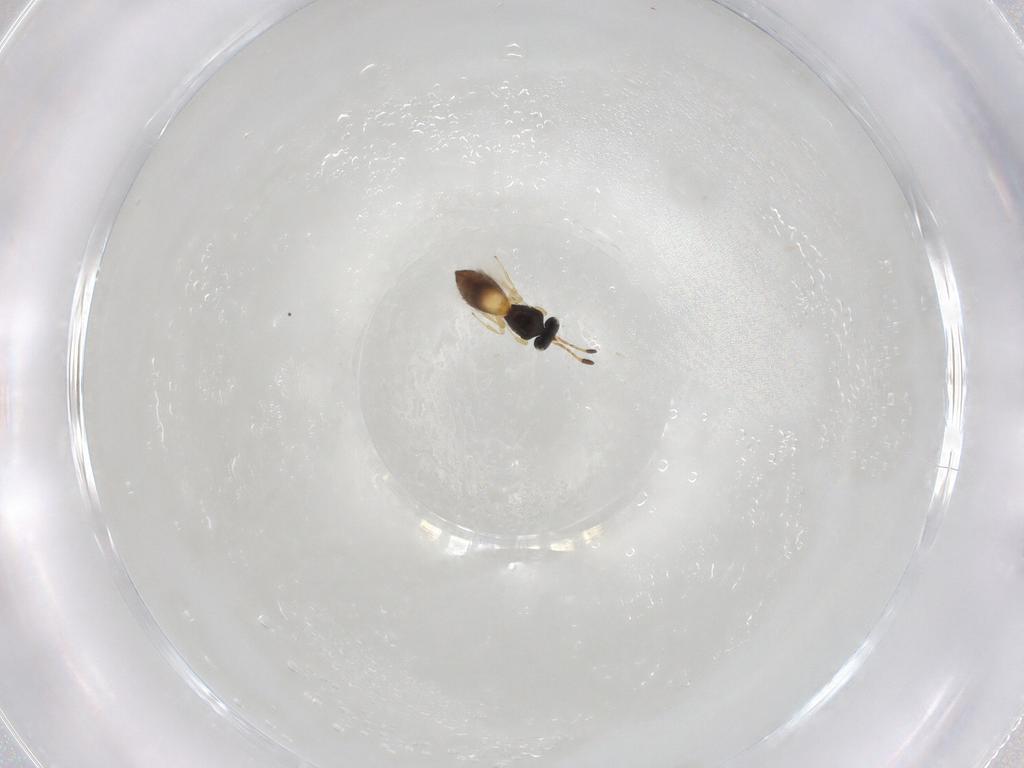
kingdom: Animalia
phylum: Arthropoda
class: Insecta
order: Hymenoptera
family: Scelionidae
